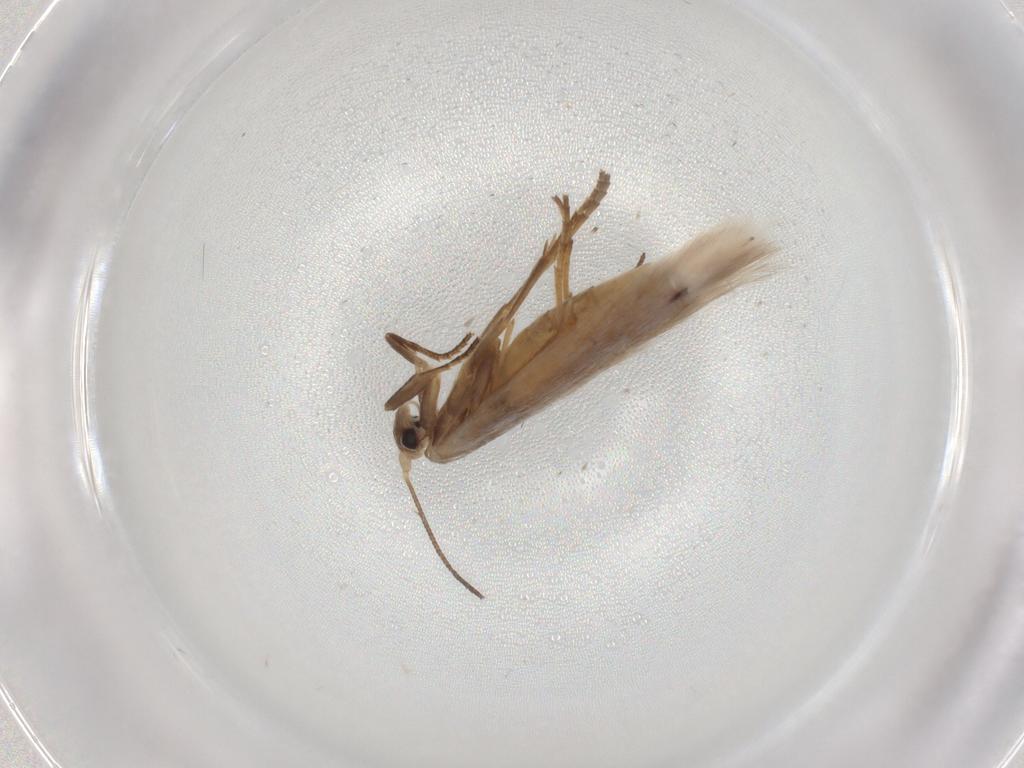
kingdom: Animalia
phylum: Arthropoda
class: Insecta
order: Lepidoptera
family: Bucculatricidae
